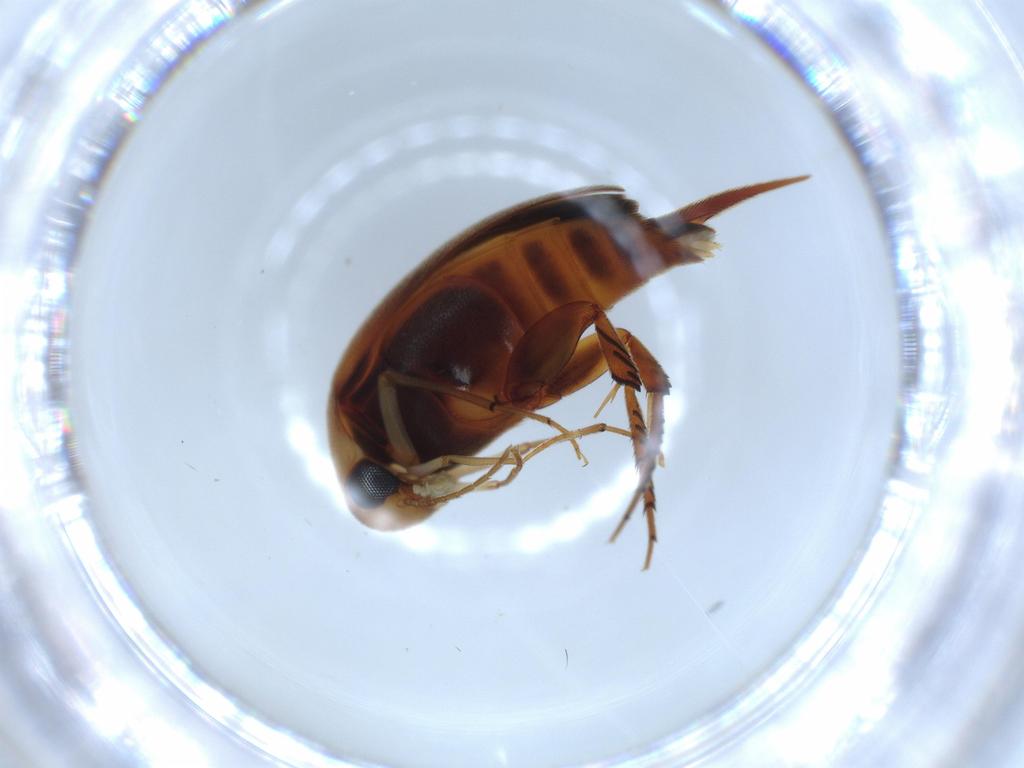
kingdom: Animalia
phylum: Arthropoda
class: Insecta
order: Coleoptera
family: Mordellidae
